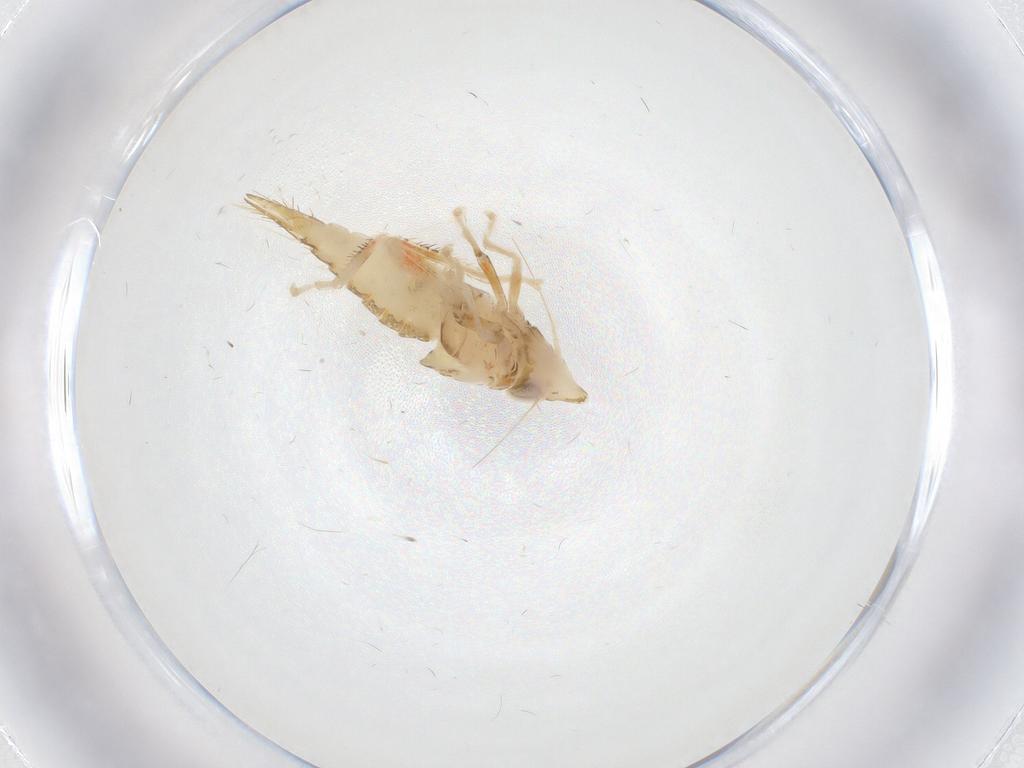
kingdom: Animalia
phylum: Arthropoda
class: Insecta
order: Hemiptera
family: Cicadellidae
